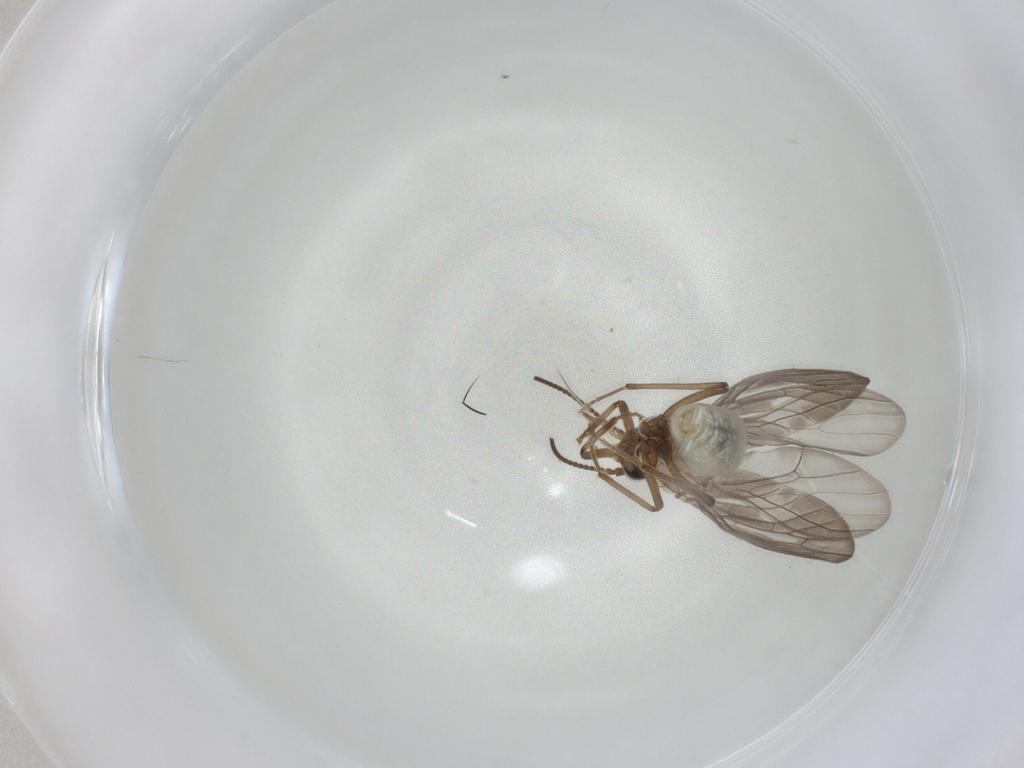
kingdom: Animalia
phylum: Arthropoda
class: Insecta
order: Neuroptera
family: Coniopterygidae
